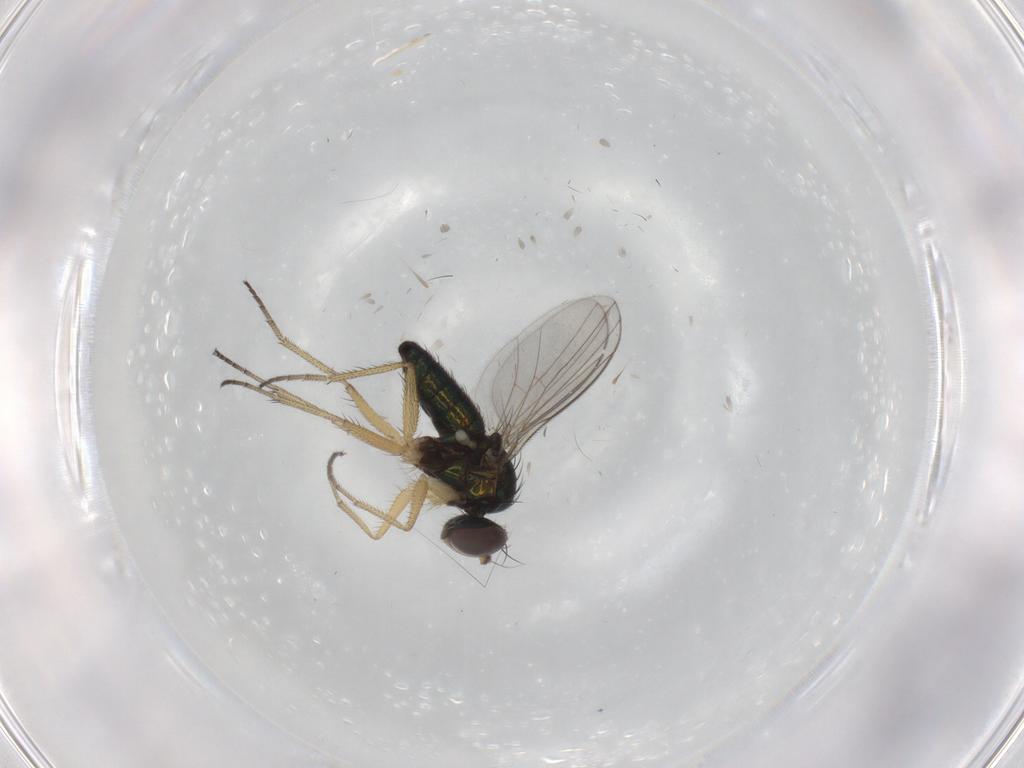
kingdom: Animalia
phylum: Arthropoda
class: Insecta
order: Diptera
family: Dolichopodidae
